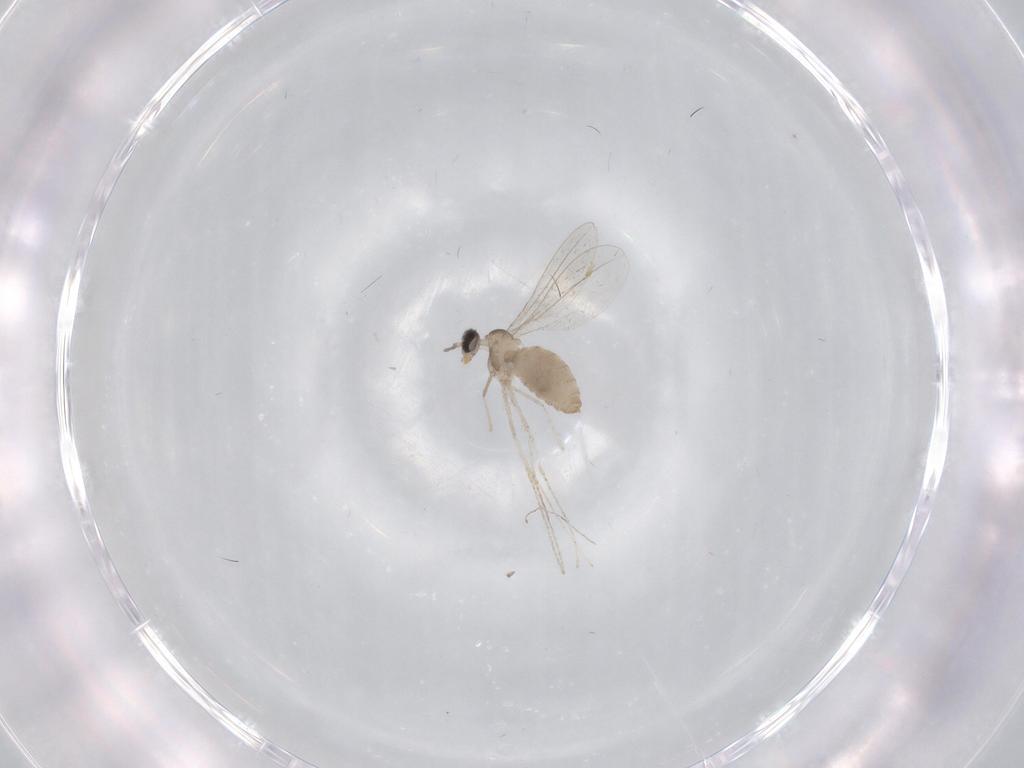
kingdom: Animalia
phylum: Arthropoda
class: Insecta
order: Diptera
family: Cecidomyiidae
